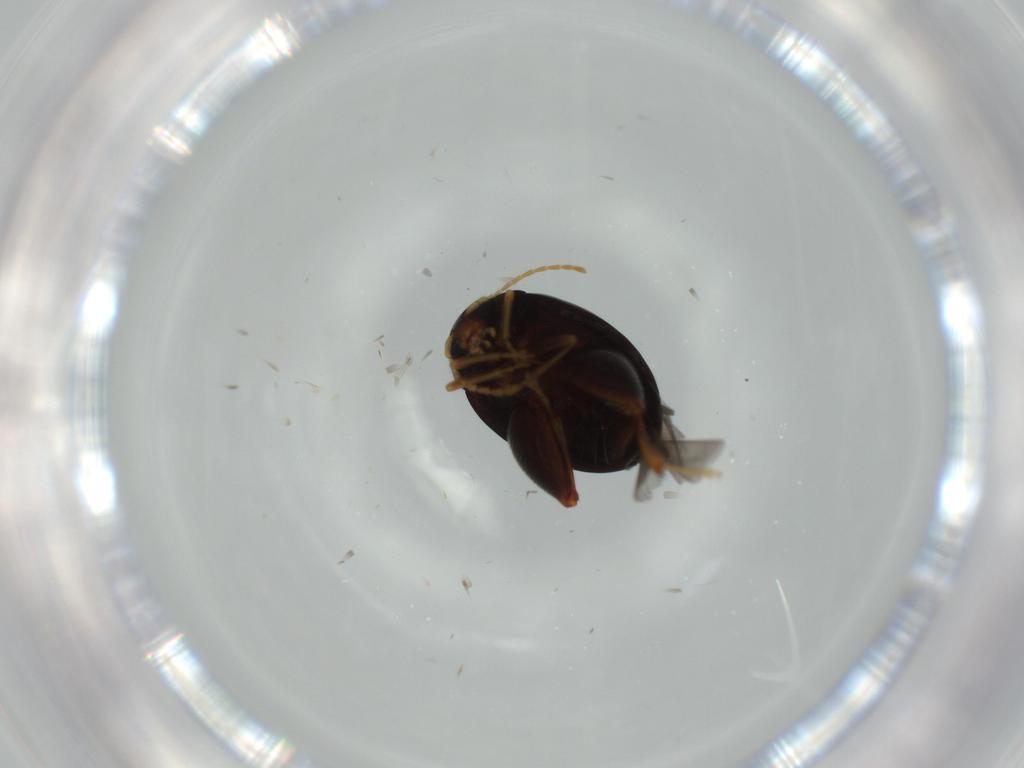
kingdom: Animalia
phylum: Arthropoda
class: Insecta
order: Coleoptera
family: Chrysomelidae
